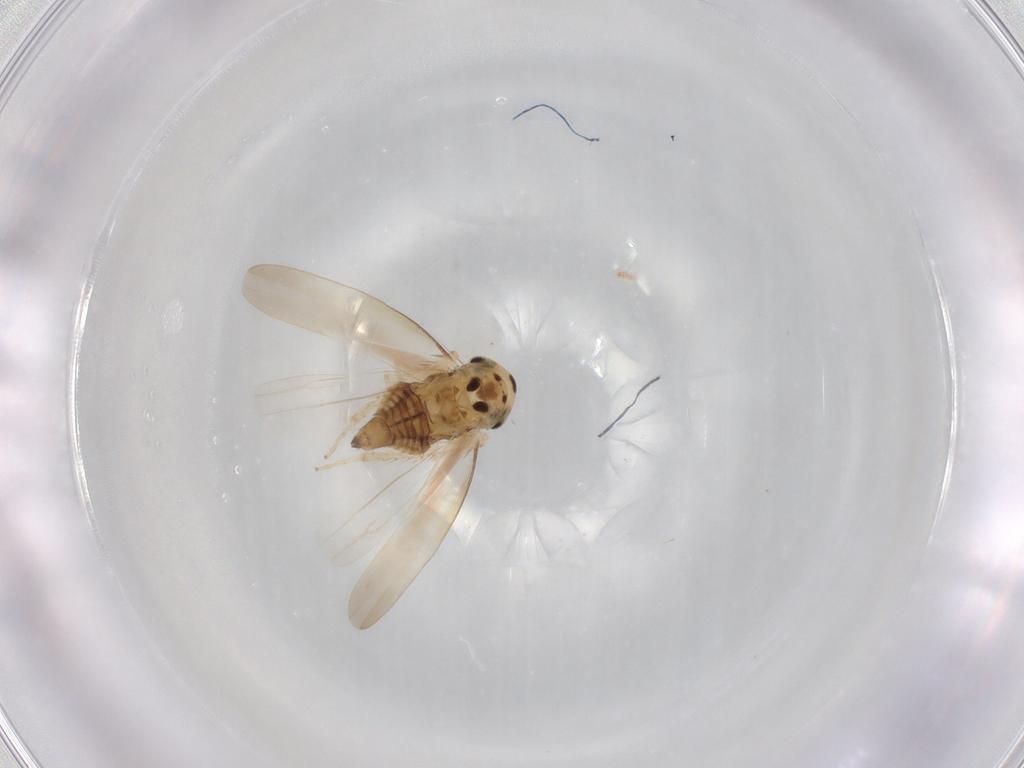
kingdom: Animalia
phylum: Arthropoda
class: Insecta
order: Hemiptera
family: Cicadellidae
